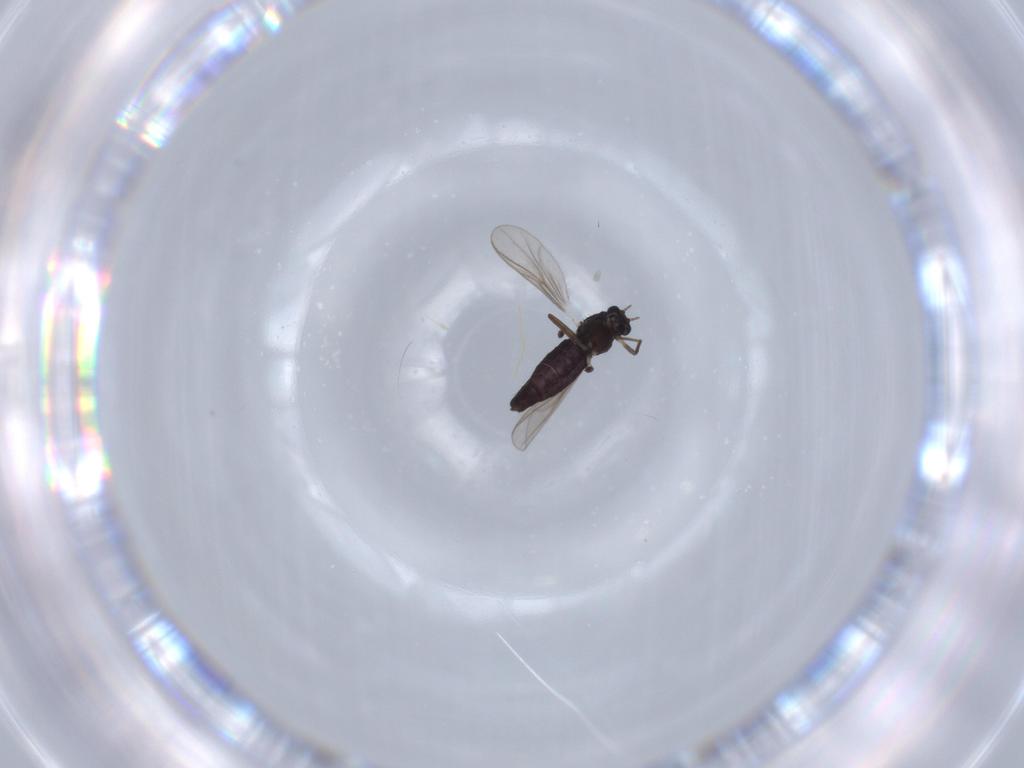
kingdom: Animalia
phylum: Arthropoda
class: Insecta
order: Diptera
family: Chironomidae
